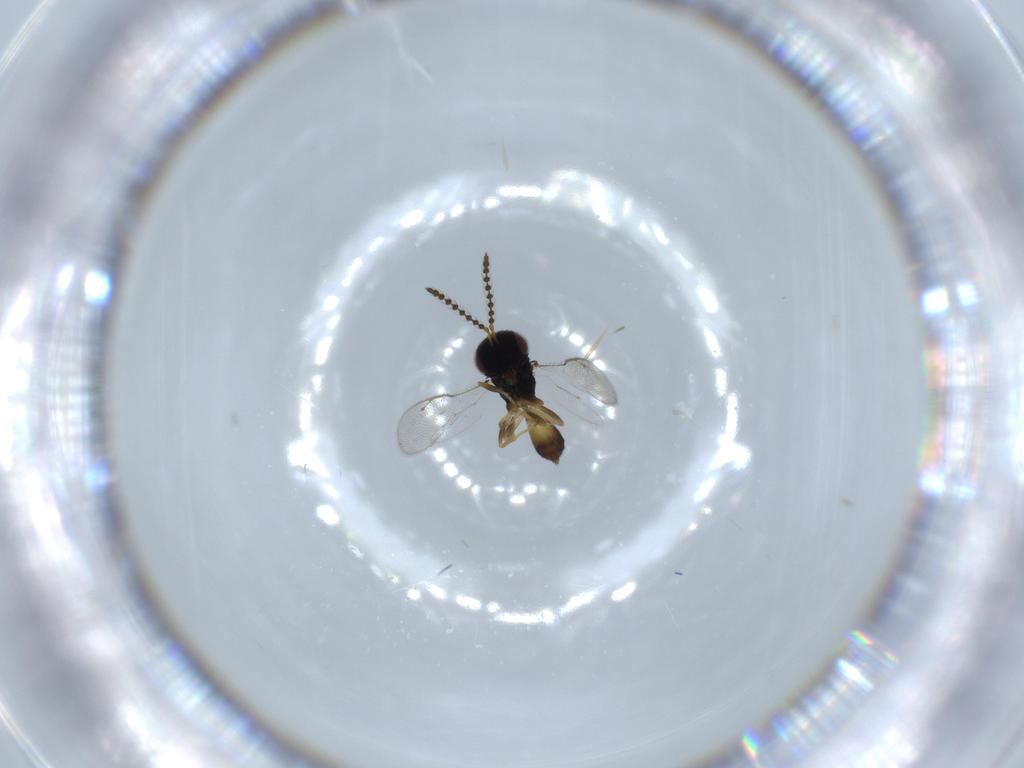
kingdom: Animalia
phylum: Arthropoda
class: Insecta
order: Hymenoptera
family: Pteromalidae
